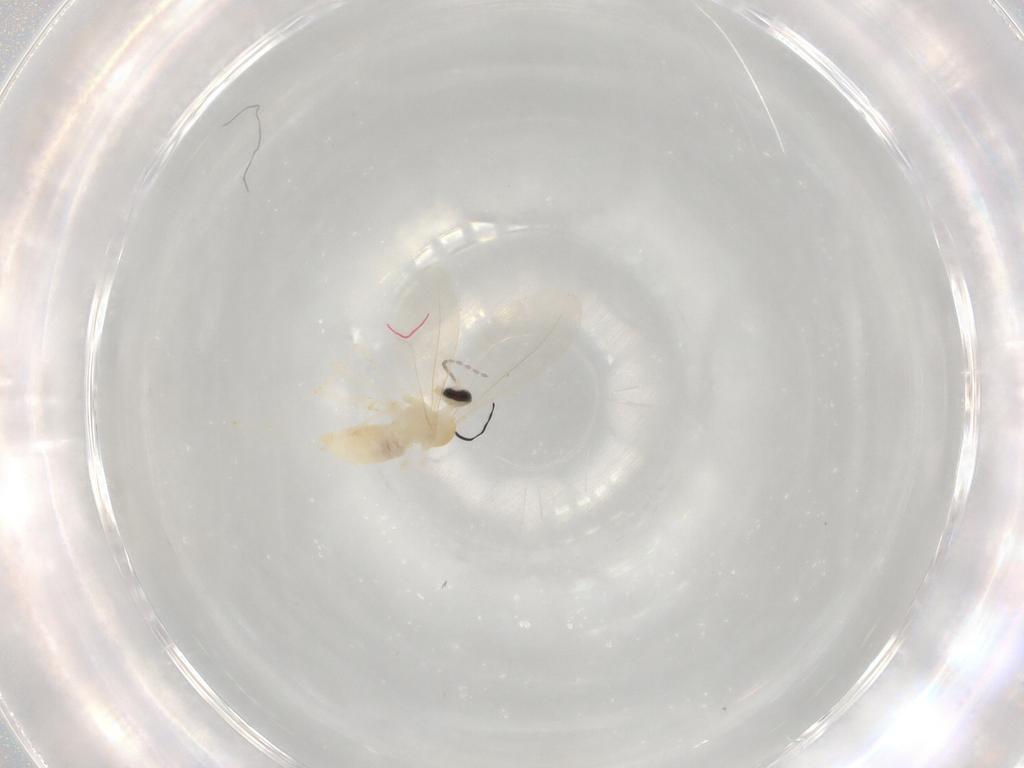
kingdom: Animalia
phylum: Arthropoda
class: Insecta
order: Diptera
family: Cecidomyiidae
